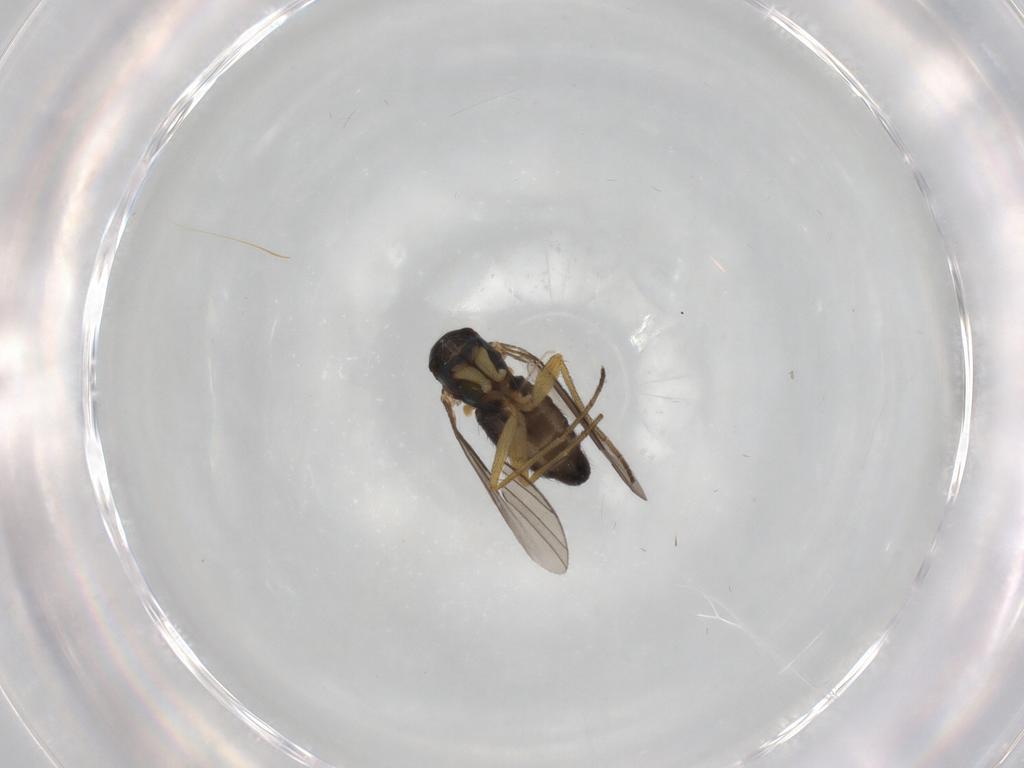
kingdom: Animalia
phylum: Arthropoda
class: Insecta
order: Diptera
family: Dolichopodidae
